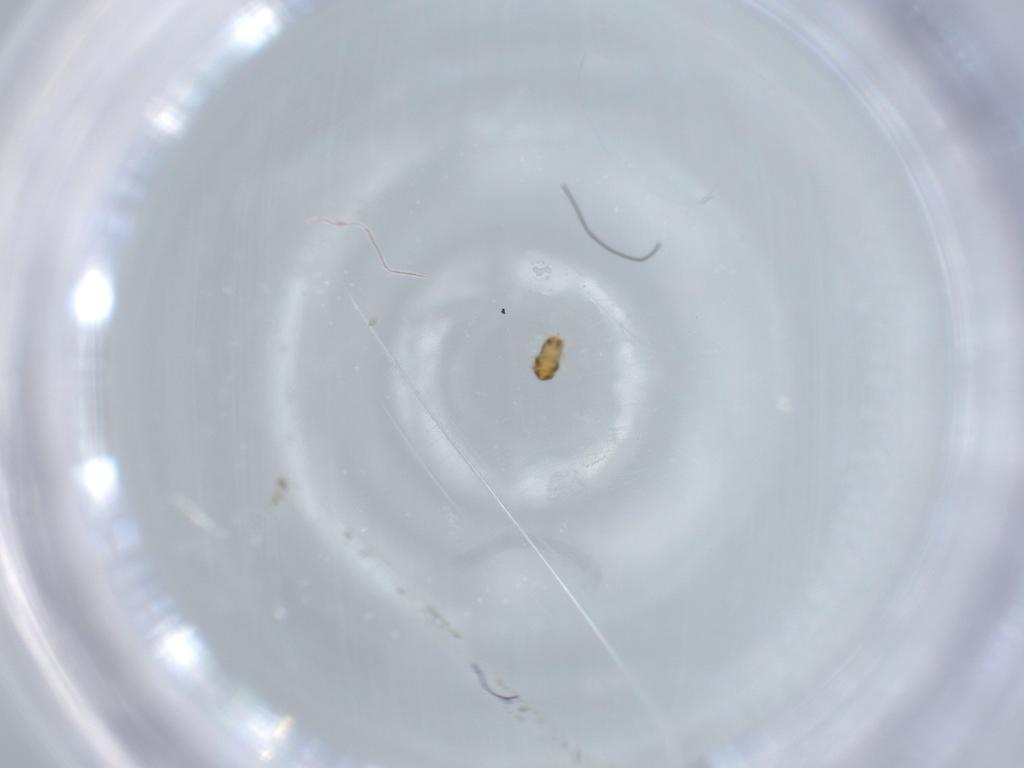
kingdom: Animalia
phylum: Arthropoda
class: Insecta
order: Hymenoptera
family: Aphelinidae
